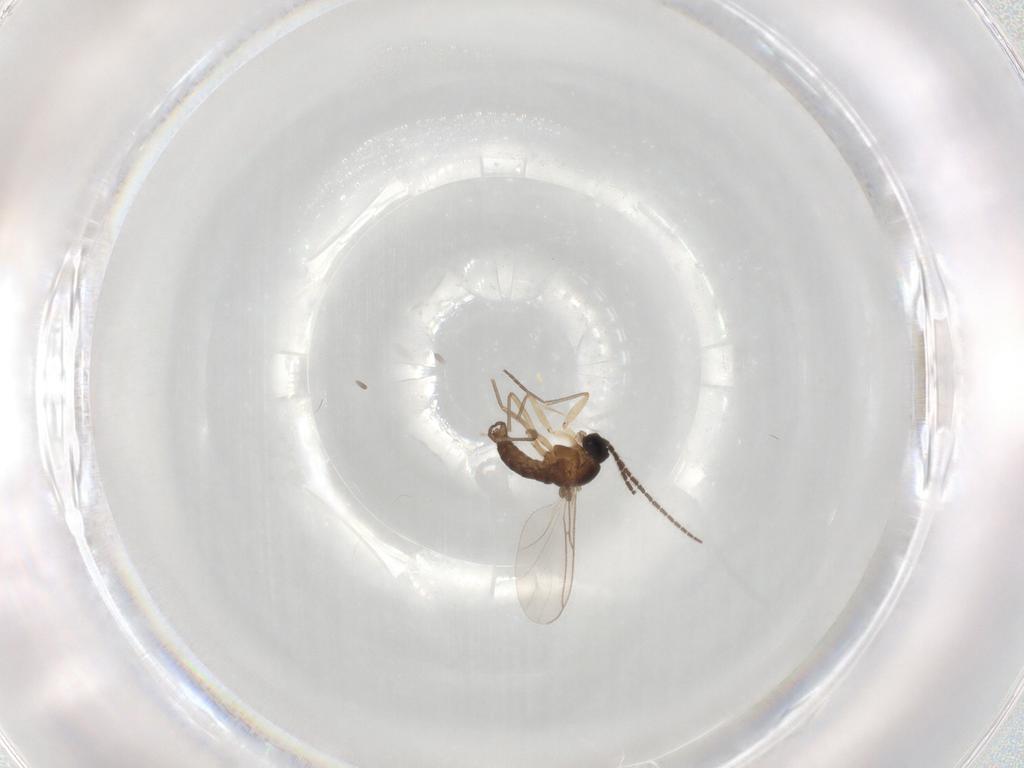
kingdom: Animalia
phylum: Arthropoda
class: Insecta
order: Diptera
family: Sciaridae
